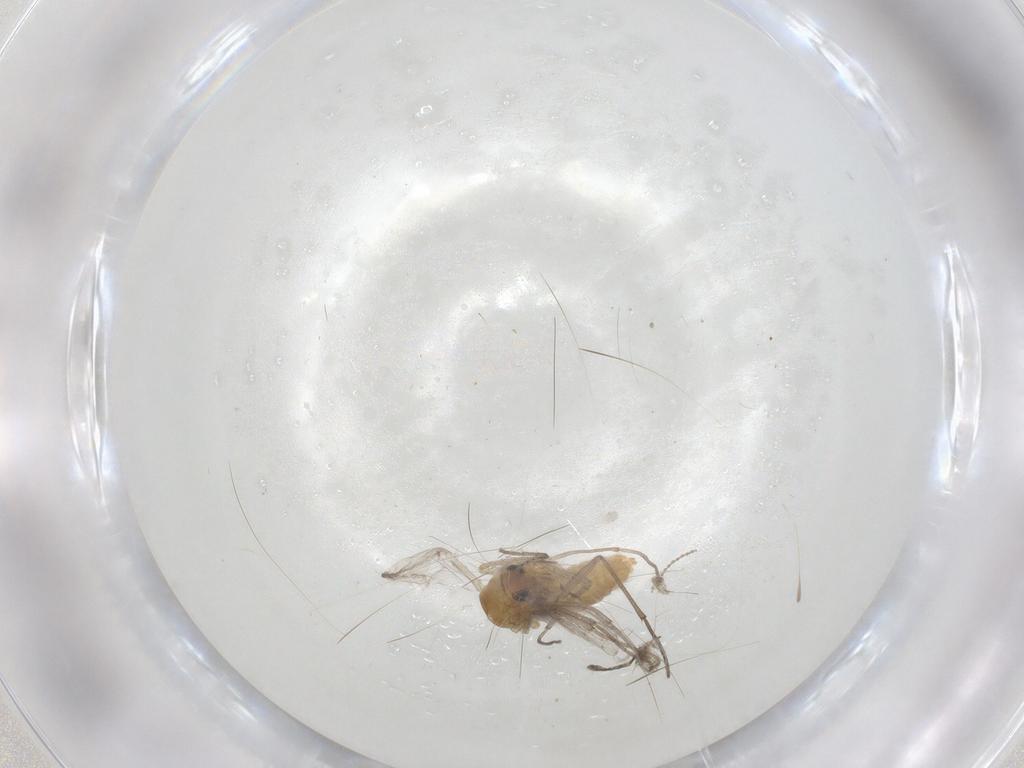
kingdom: Animalia
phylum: Arthropoda
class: Insecta
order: Diptera
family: Chironomidae
